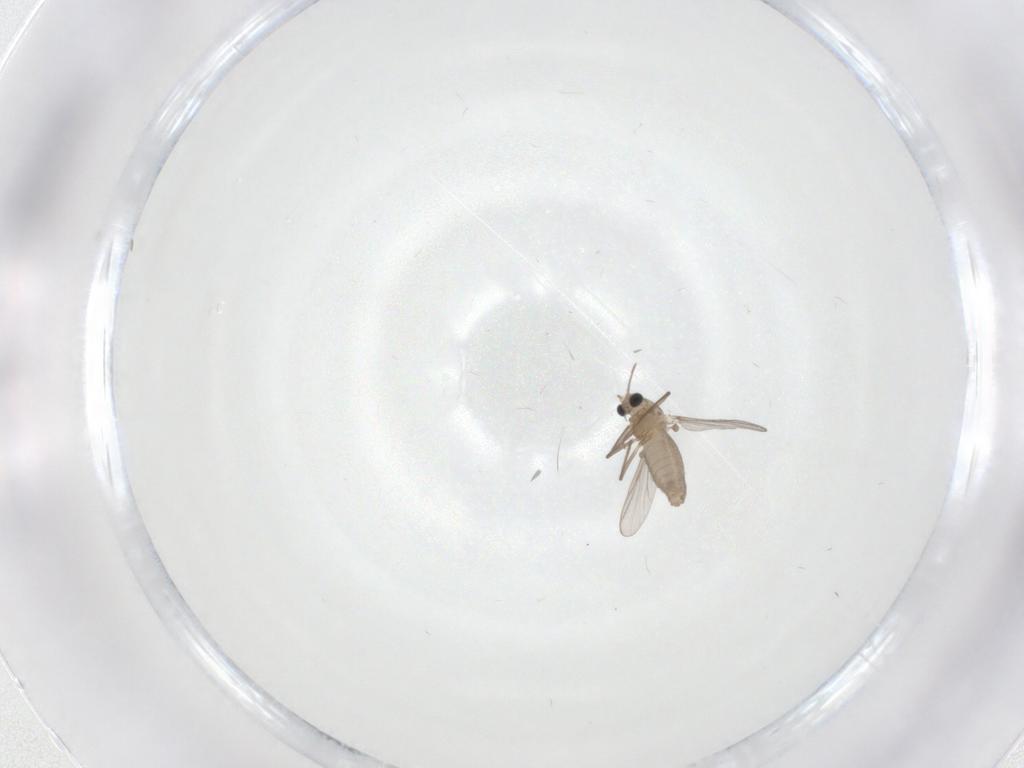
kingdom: Animalia
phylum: Arthropoda
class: Insecta
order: Diptera
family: Chironomidae
